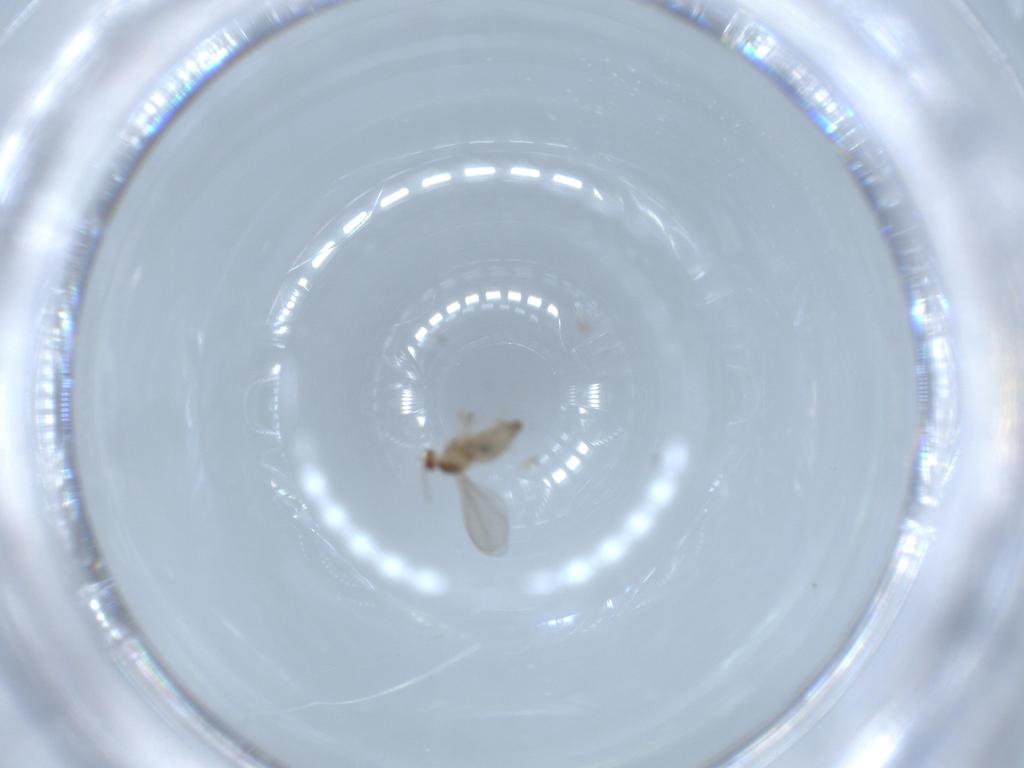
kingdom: Animalia
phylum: Arthropoda
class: Insecta
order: Diptera
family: Cecidomyiidae
